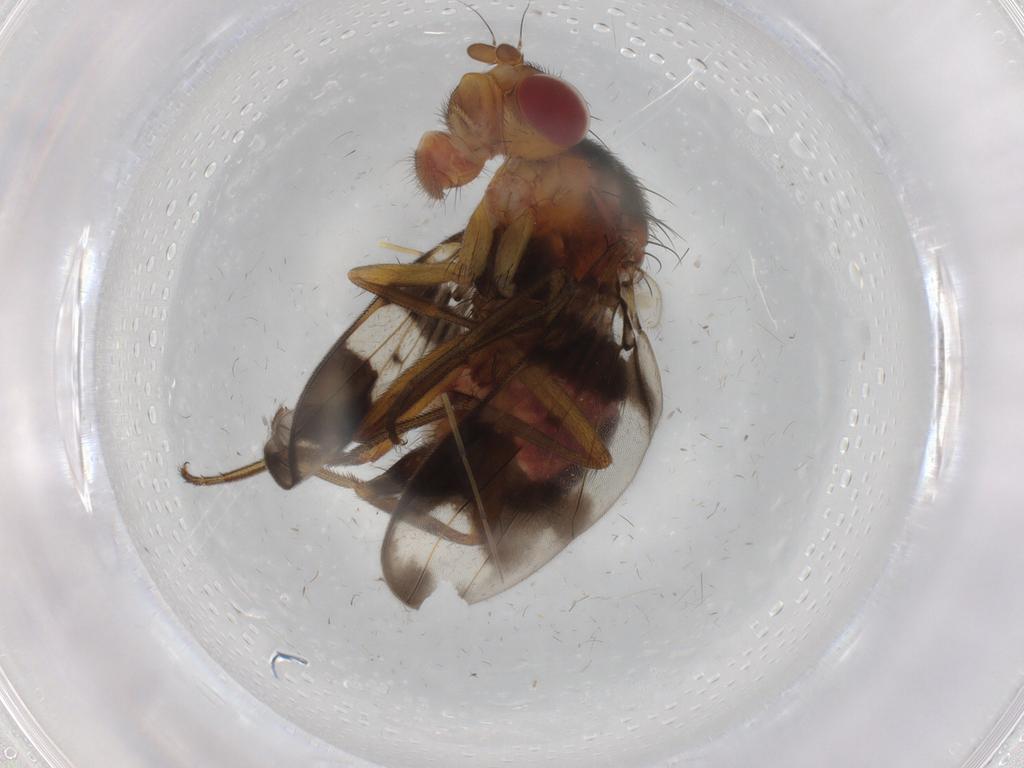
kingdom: Animalia
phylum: Arthropoda
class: Insecta
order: Diptera
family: Richardiidae
